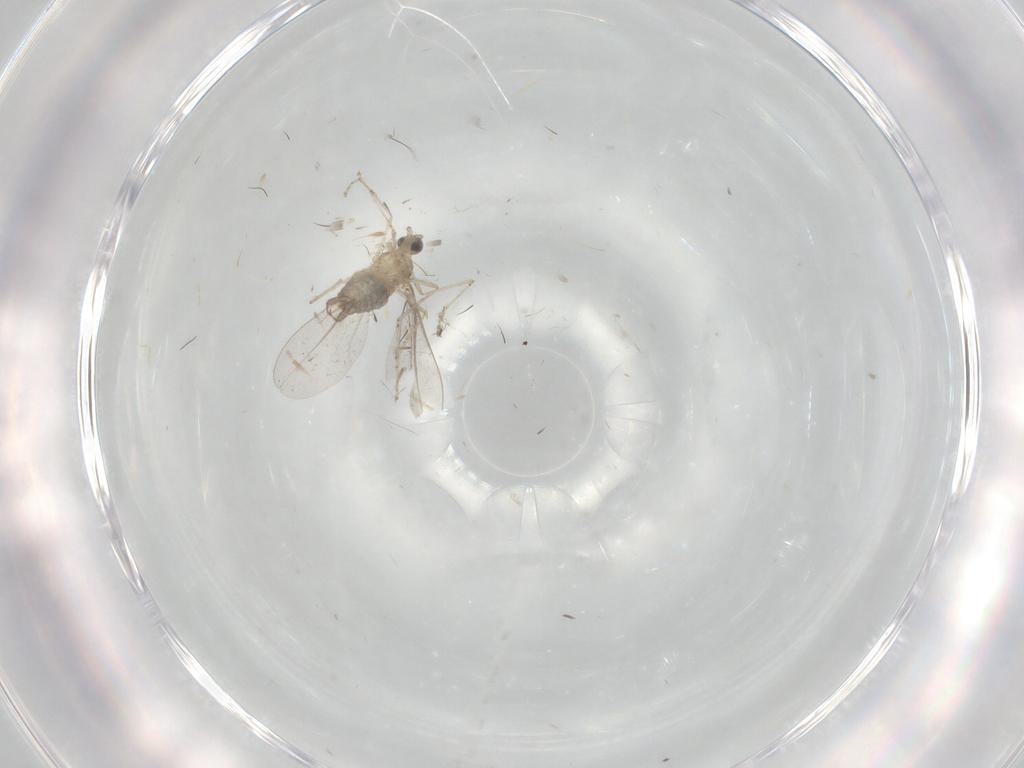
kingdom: Animalia
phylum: Arthropoda
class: Insecta
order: Diptera
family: Cecidomyiidae
